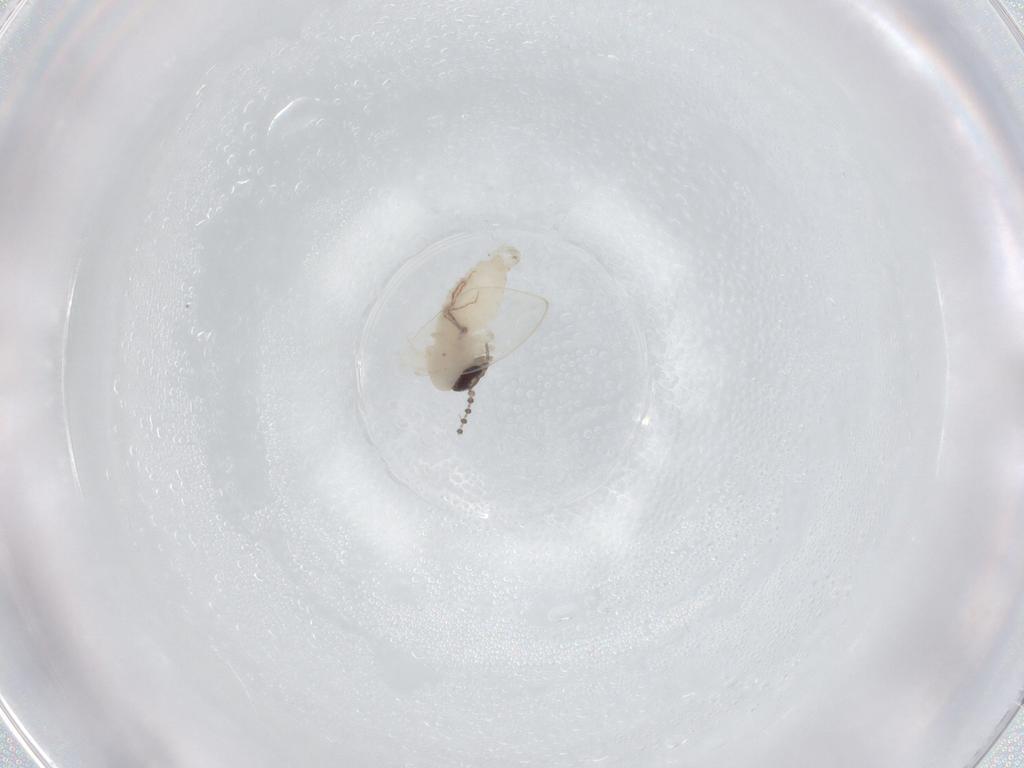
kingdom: Animalia
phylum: Arthropoda
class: Insecta
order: Diptera
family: Psychodidae
